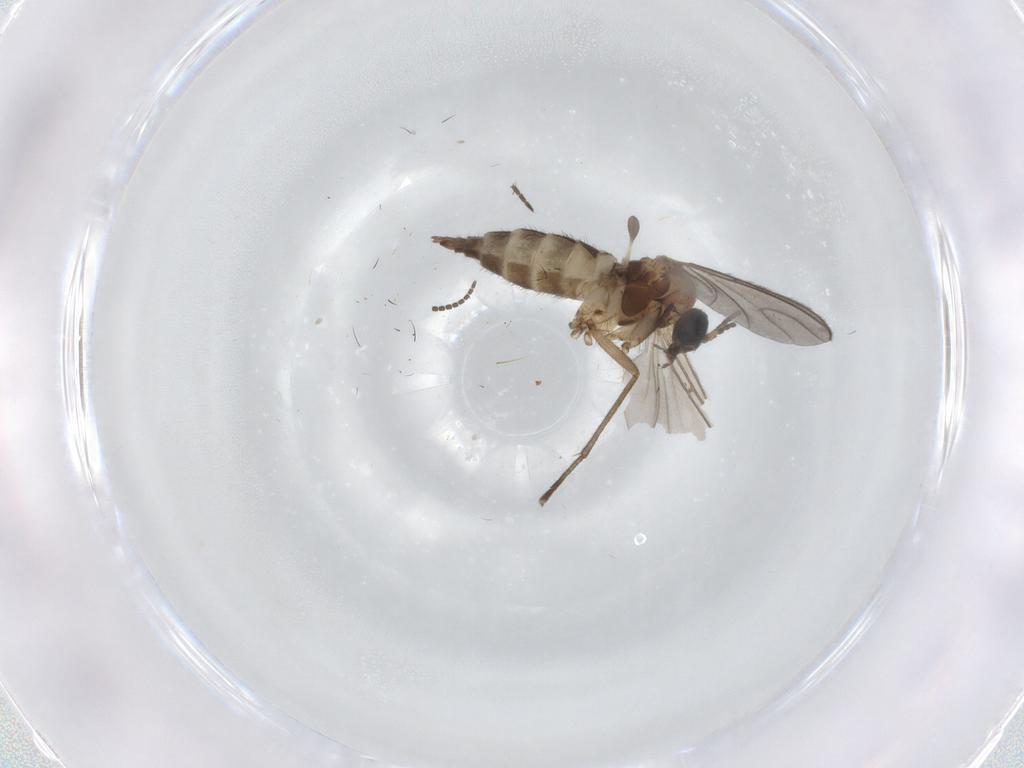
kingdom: Animalia
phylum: Arthropoda
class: Insecta
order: Diptera
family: Sciaridae
